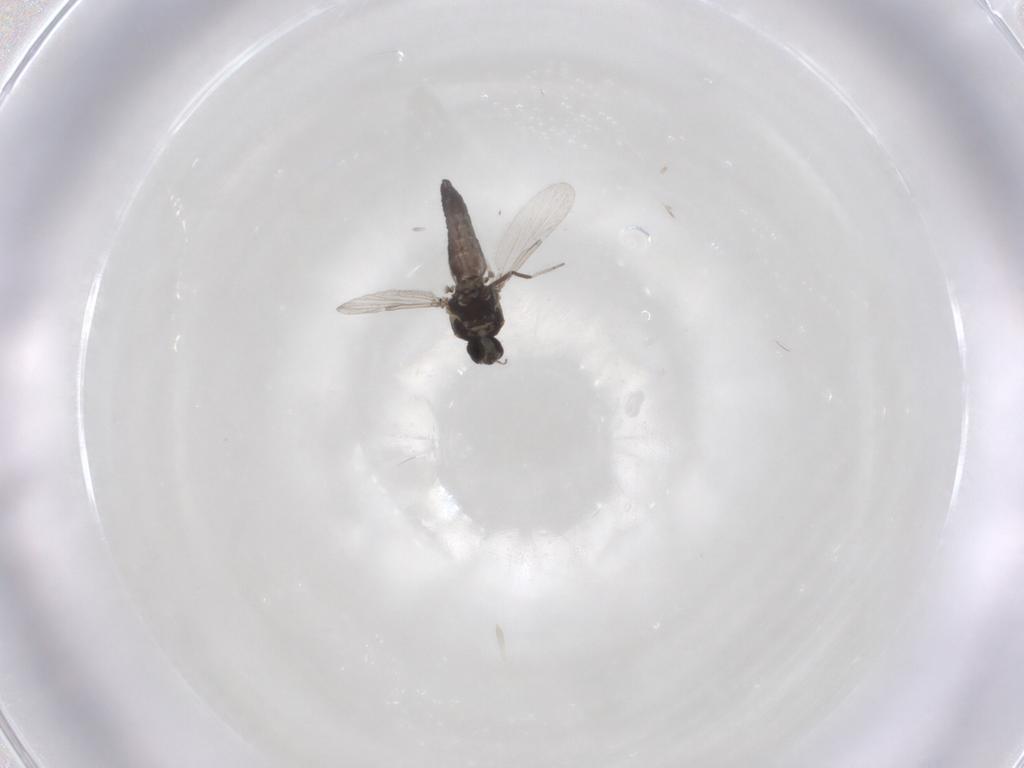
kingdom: Animalia
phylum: Arthropoda
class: Insecta
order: Diptera
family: Ceratopogonidae
